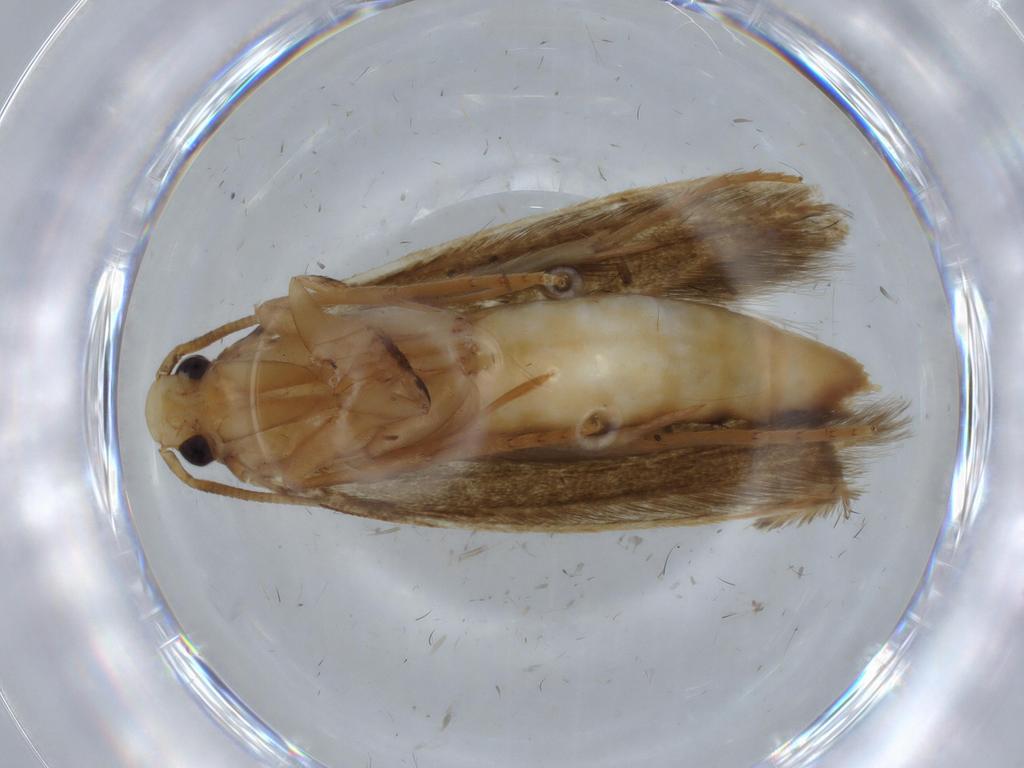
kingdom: Animalia
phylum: Arthropoda
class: Insecta
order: Lepidoptera
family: Tineidae
